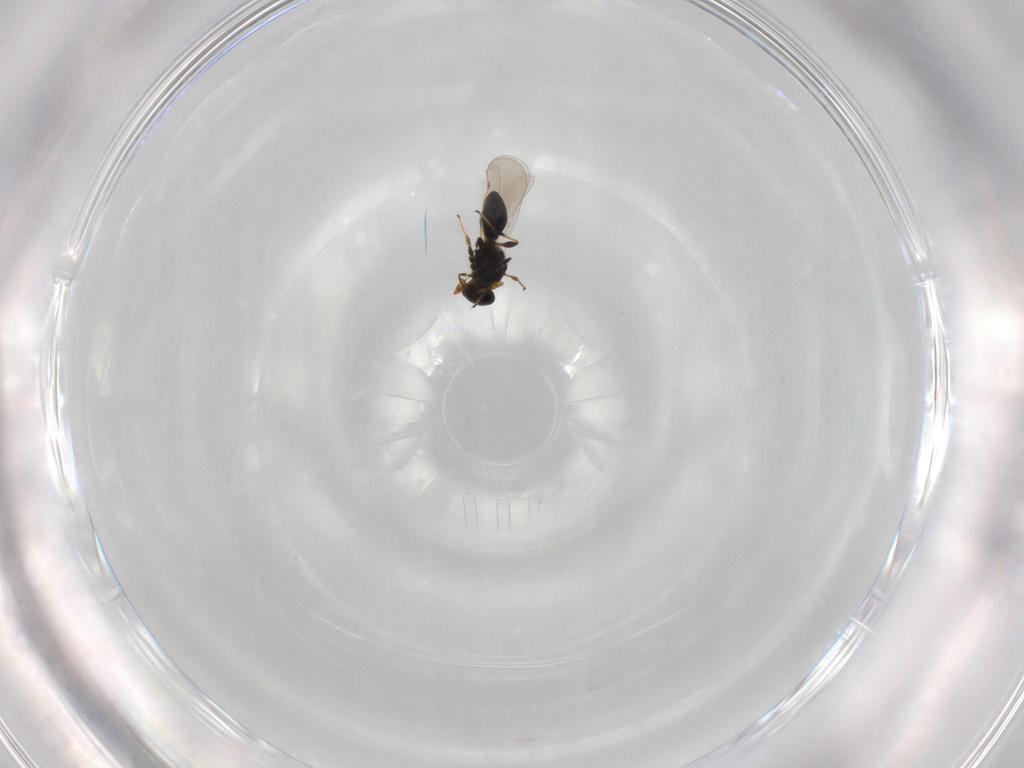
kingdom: Animalia
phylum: Arthropoda
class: Insecta
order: Hymenoptera
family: Platygastridae
